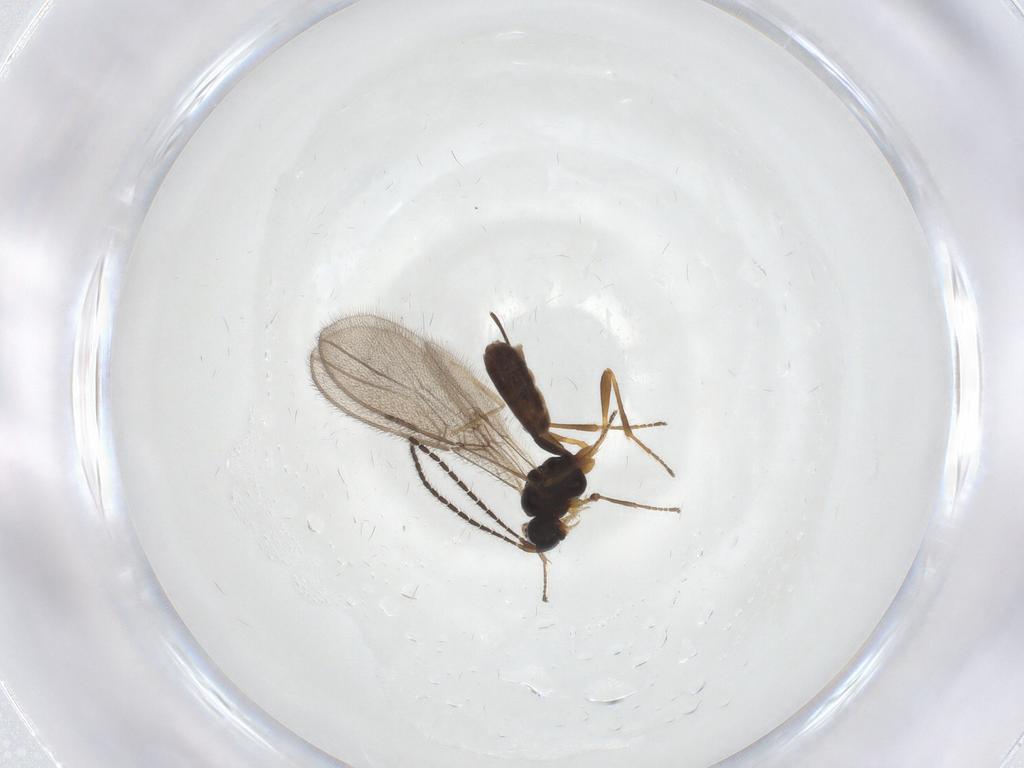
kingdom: Animalia
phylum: Arthropoda
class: Insecta
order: Hymenoptera
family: Braconidae
